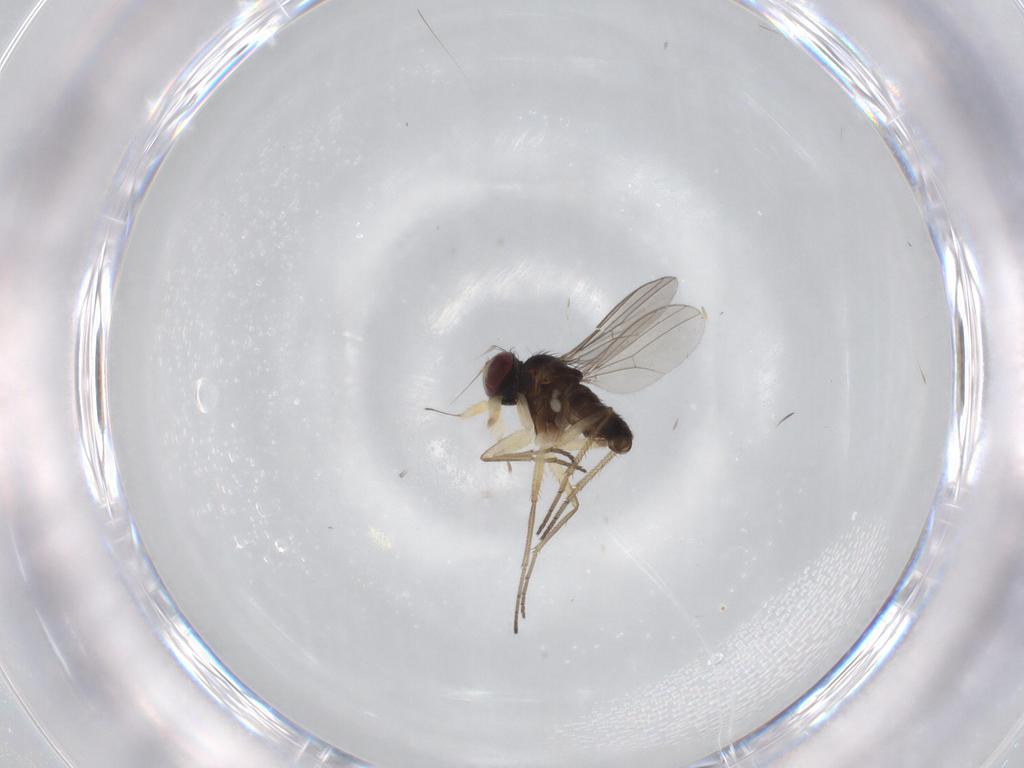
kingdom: Animalia
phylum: Arthropoda
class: Insecta
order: Diptera
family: Dolichopodidae
